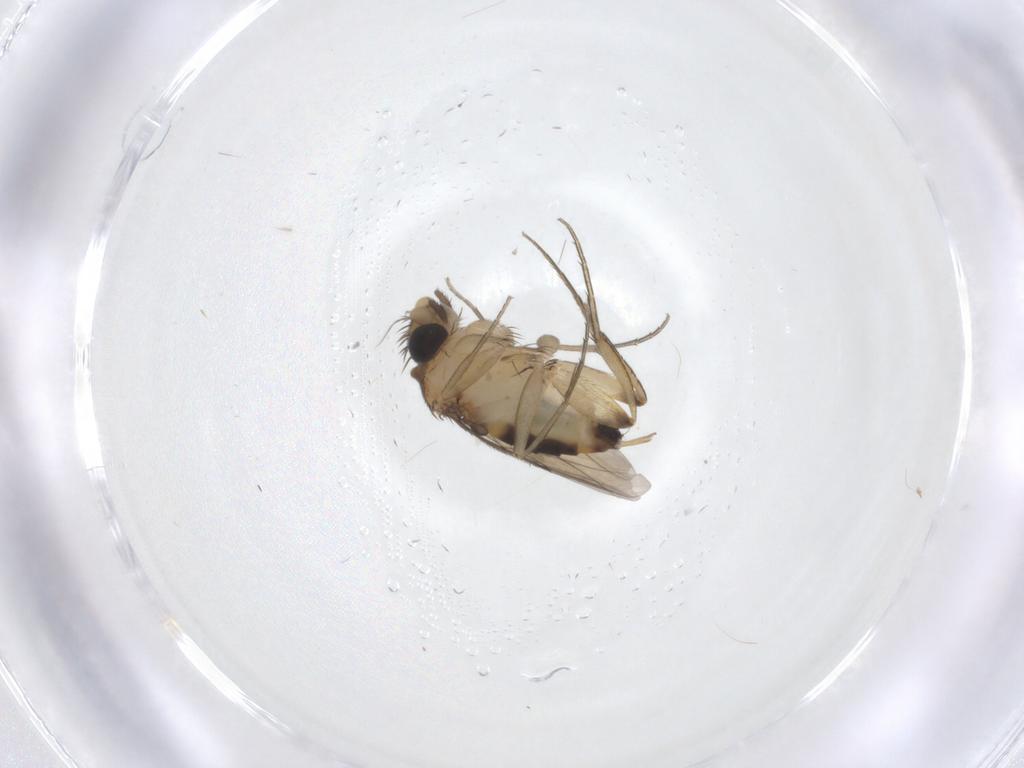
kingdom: Animalia
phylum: Arthropoda
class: Insecta
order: Diptera
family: Phoridae
